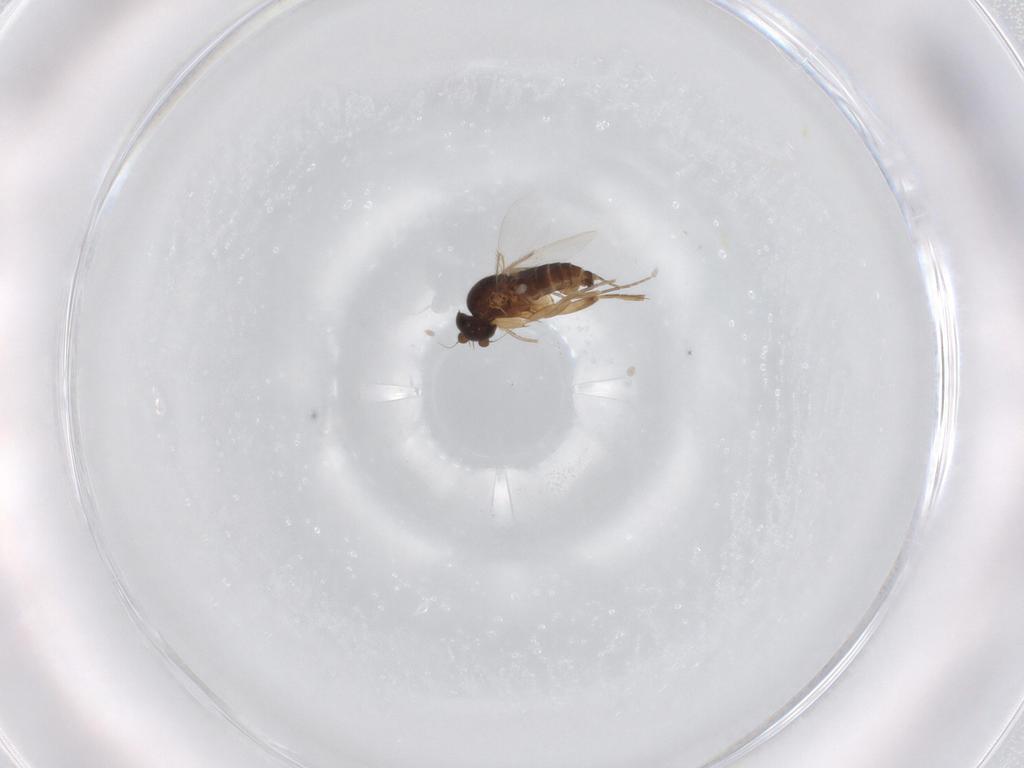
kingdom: Animalia
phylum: Arthropoda
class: Insecta
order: Diptera
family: Phoridae
